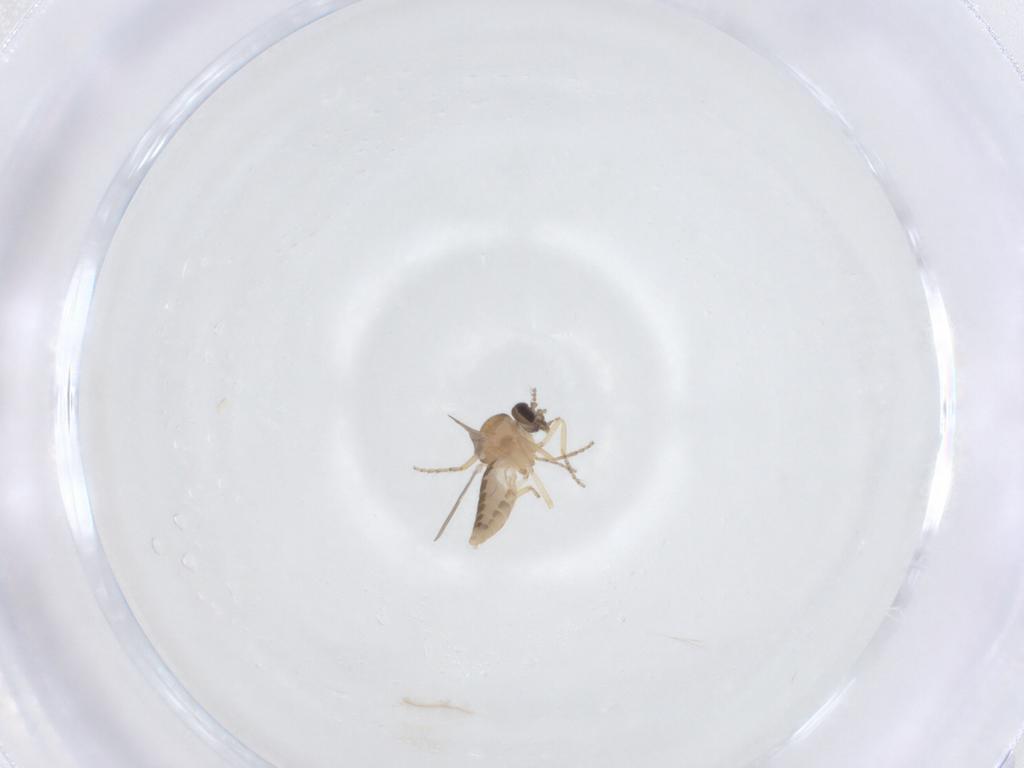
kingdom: Animalia
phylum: Arthropoda
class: Insecta
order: Diptera
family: Ceratopogonidae
